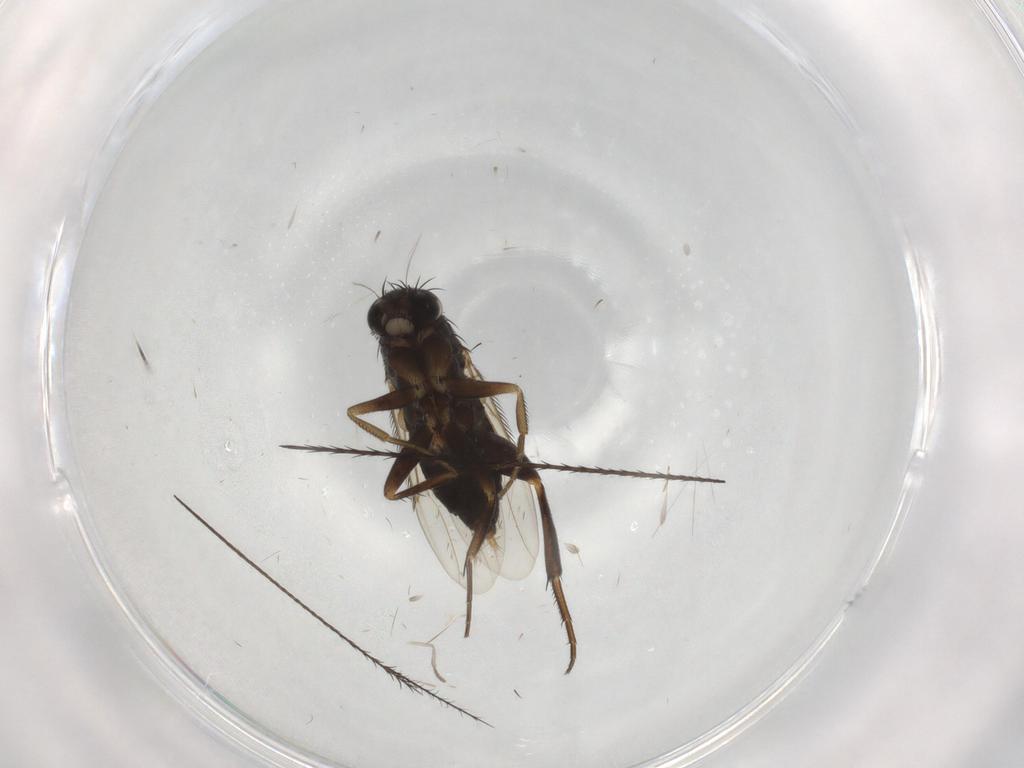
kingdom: Animalia
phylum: Arthropoda
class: Insecta
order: Diptera
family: Phoridae
